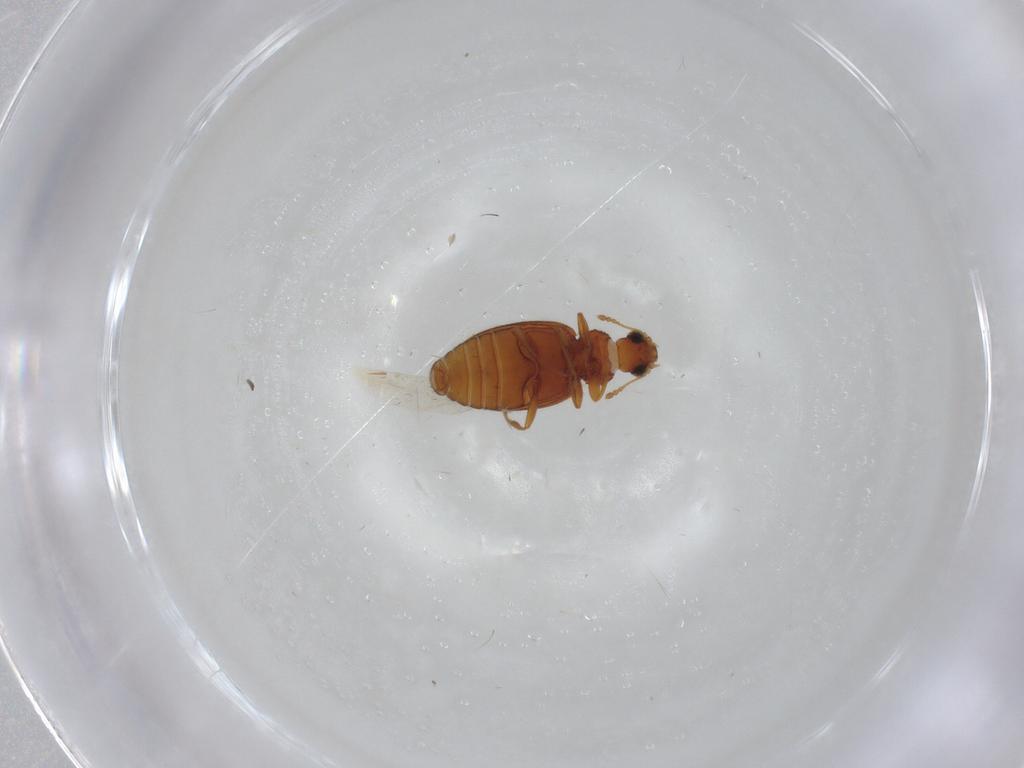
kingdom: Animalia
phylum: Arthropoda
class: Insecta
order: Coleoptera
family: Latridiidae
